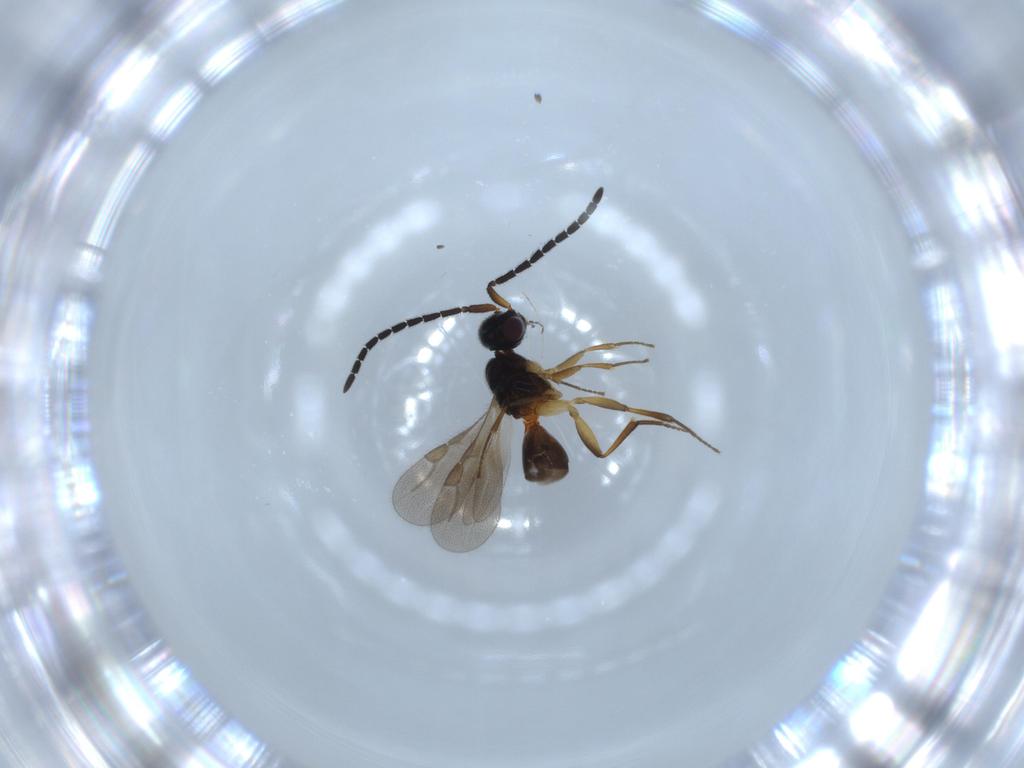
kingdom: Animalia
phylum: Arthropoda
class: Insecta
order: Hymenoptera
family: Megaspilidae
